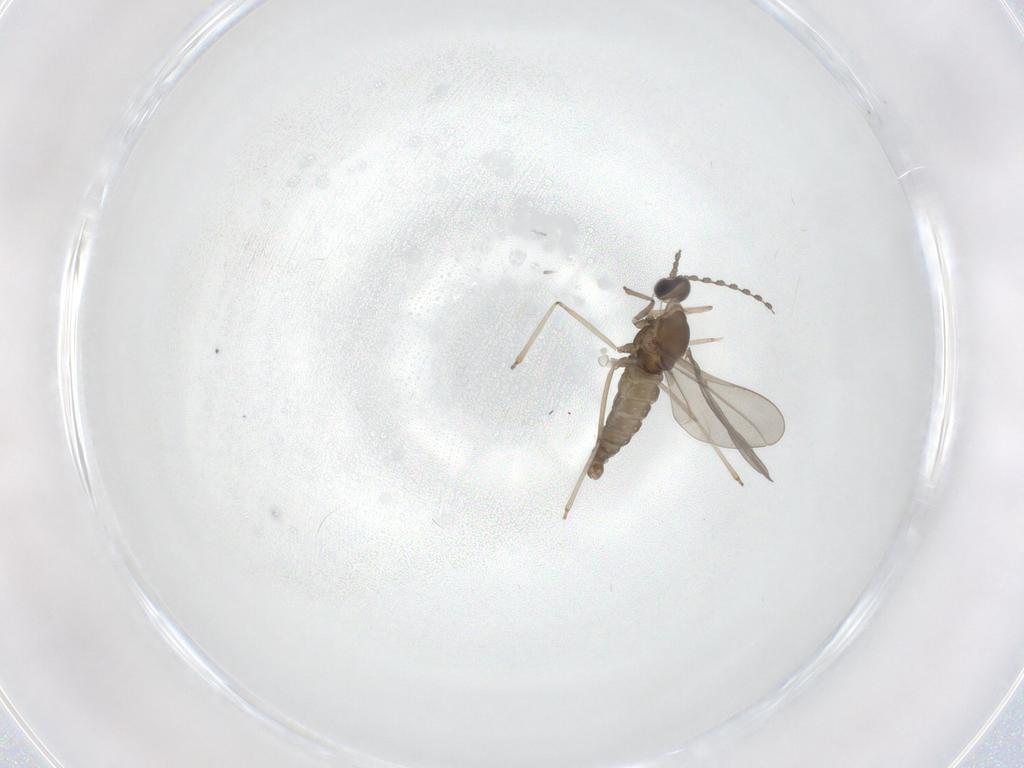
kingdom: Animalia
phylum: Arthropoda
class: Insecta
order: Diptera
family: Chironomidae
